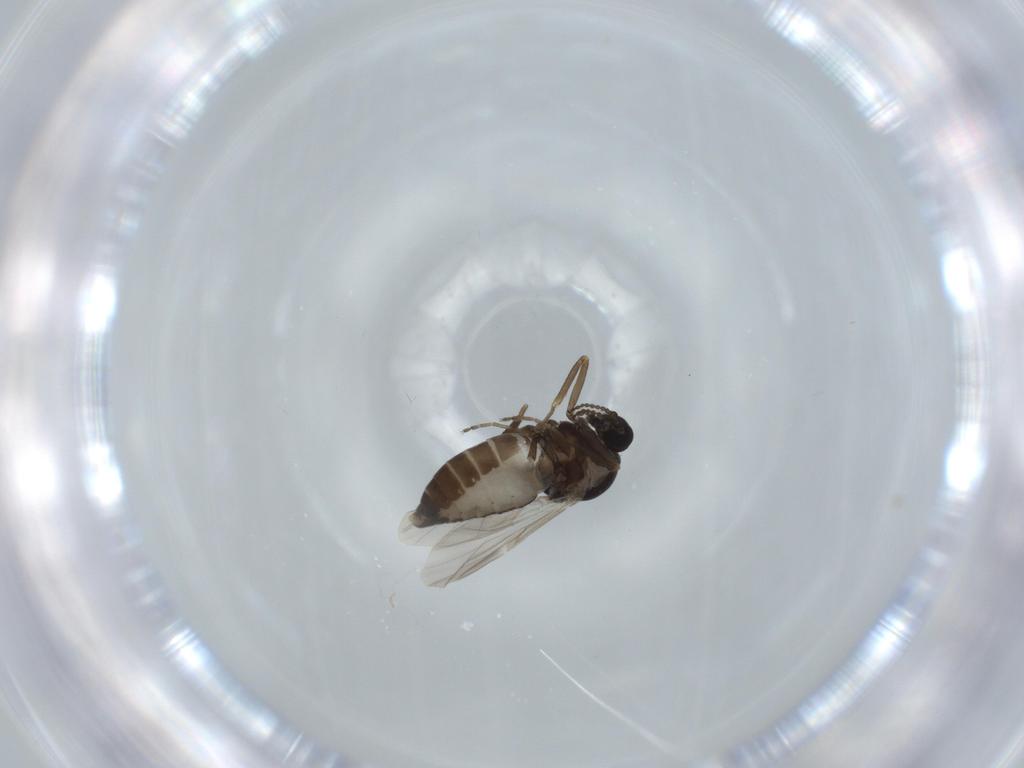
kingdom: Animalia
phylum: Arthropoda
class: Insecta
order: Diptera
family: Ceratopogonidae
